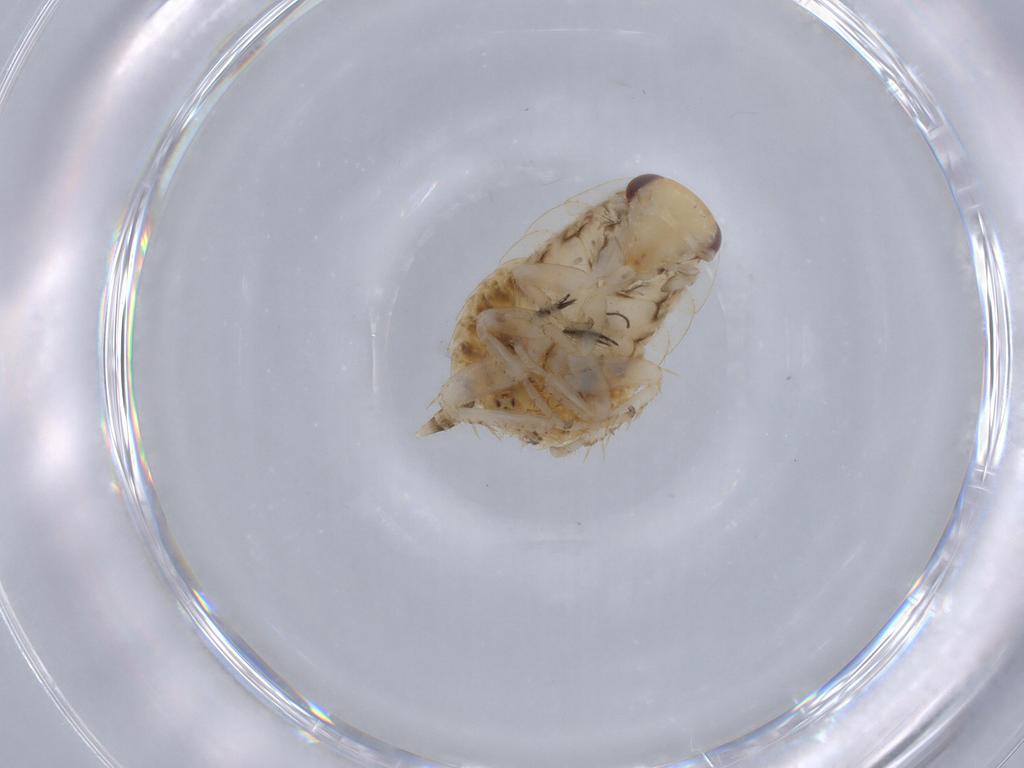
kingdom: Animalia
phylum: Arthropoda
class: Insecta
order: Blattodea
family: Ectobiidae
